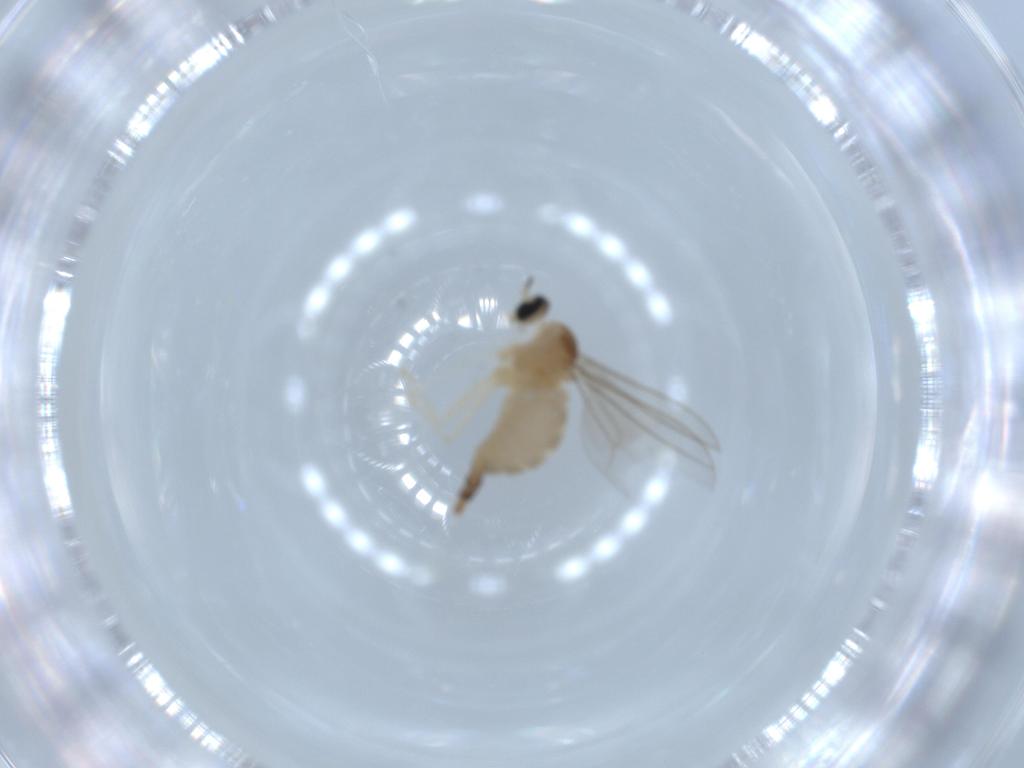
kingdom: Animalia
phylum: Arthropoda
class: Insecta
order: Diptera
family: Cecidomyiidae
